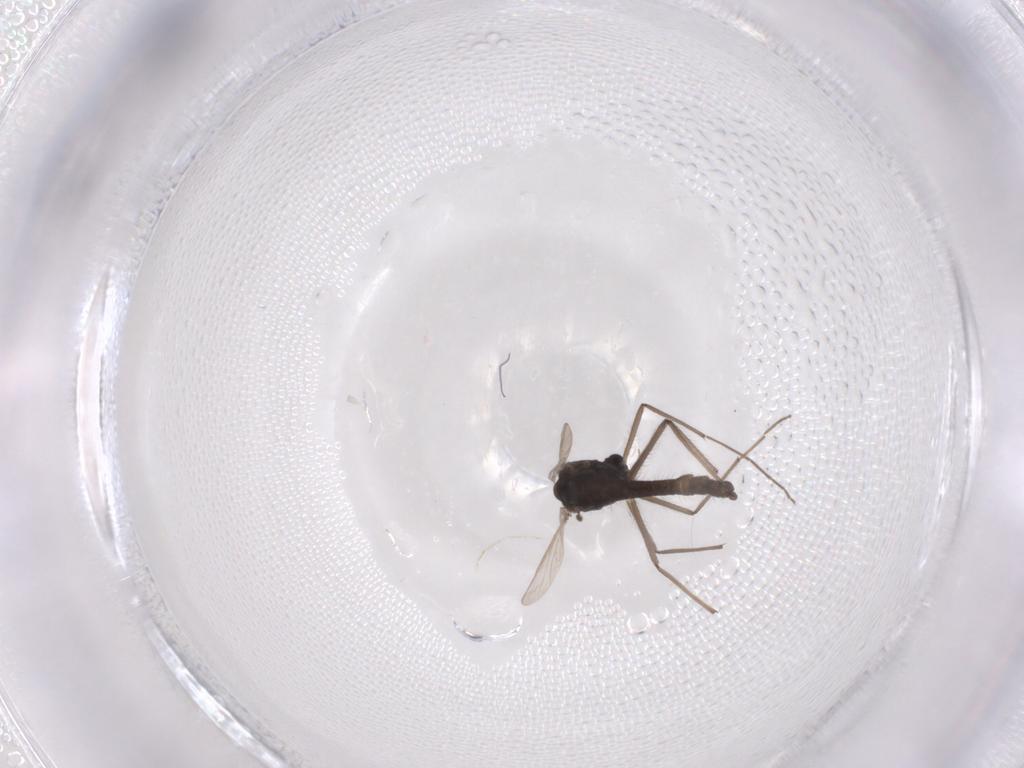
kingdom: Animalia
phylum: Arthropoda
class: Insecta
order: Diptera
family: Chironomidae
